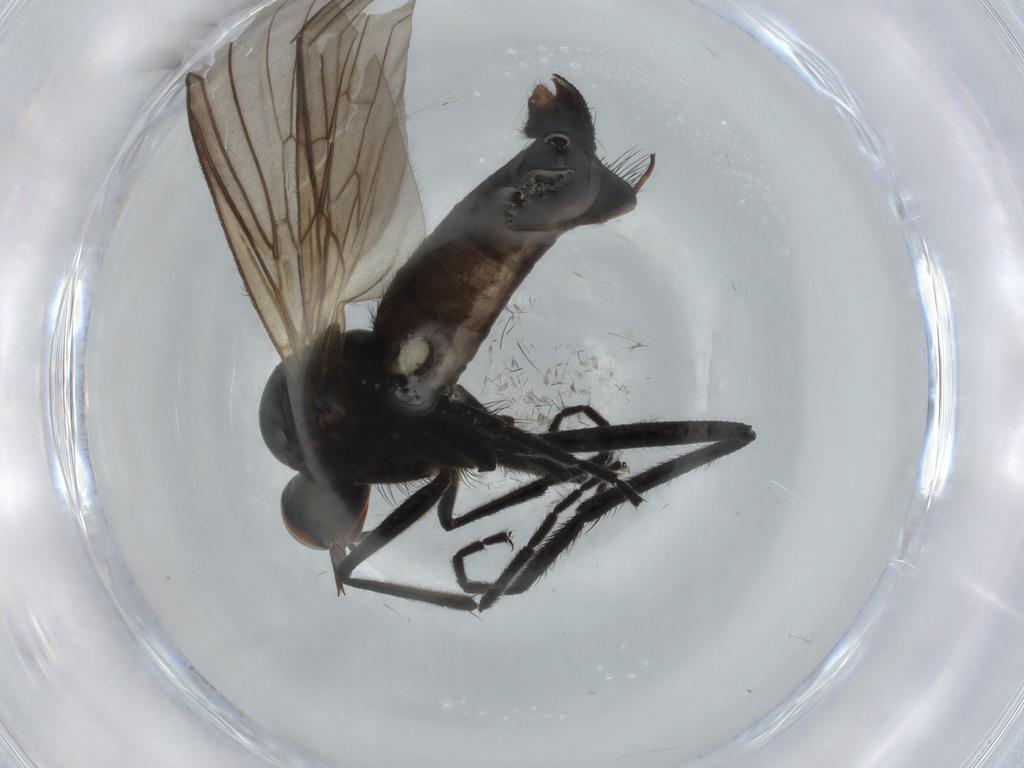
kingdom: Animalia
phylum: Arthropoda
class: Insecta
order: Diptera
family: Empididae
